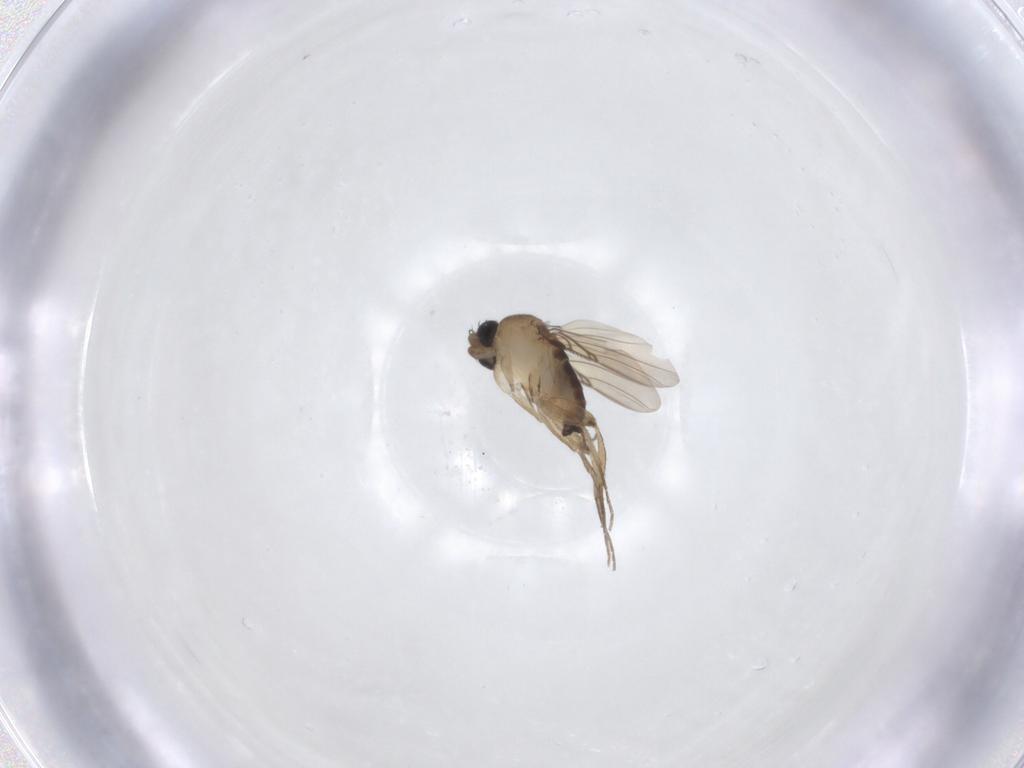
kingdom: Animalia
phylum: Arthropoda
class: Insecta
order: Diptera
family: Phoridae
